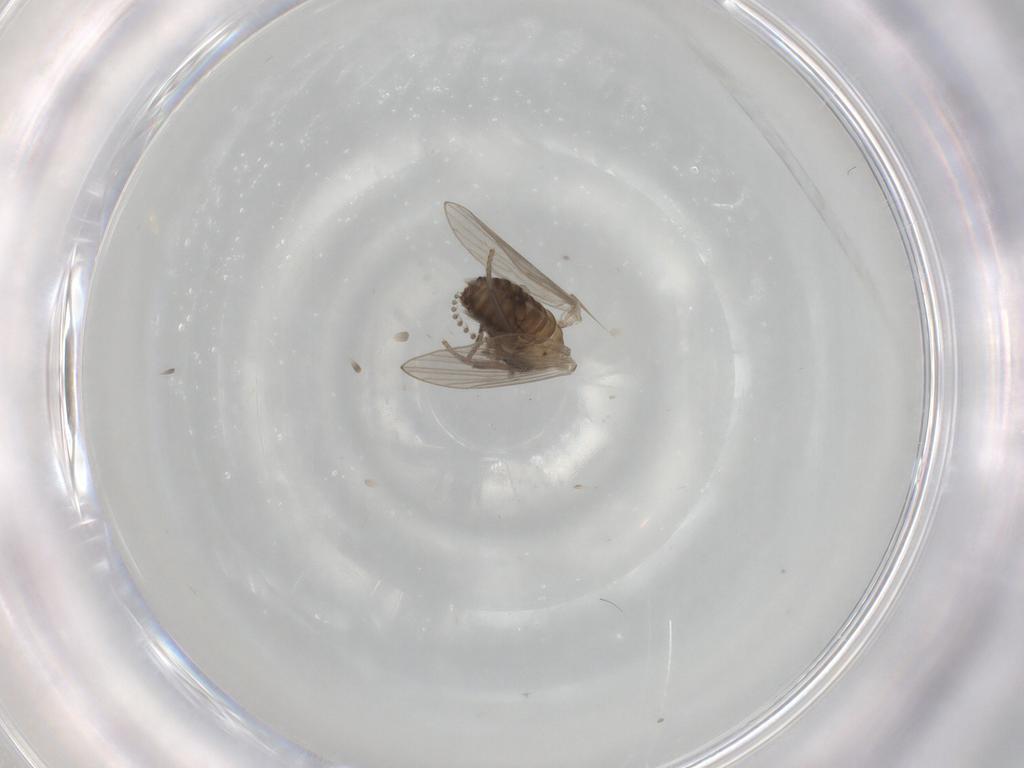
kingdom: Animalia
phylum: Arthropoda
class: Insecta
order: Diptera
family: Psychodidae
